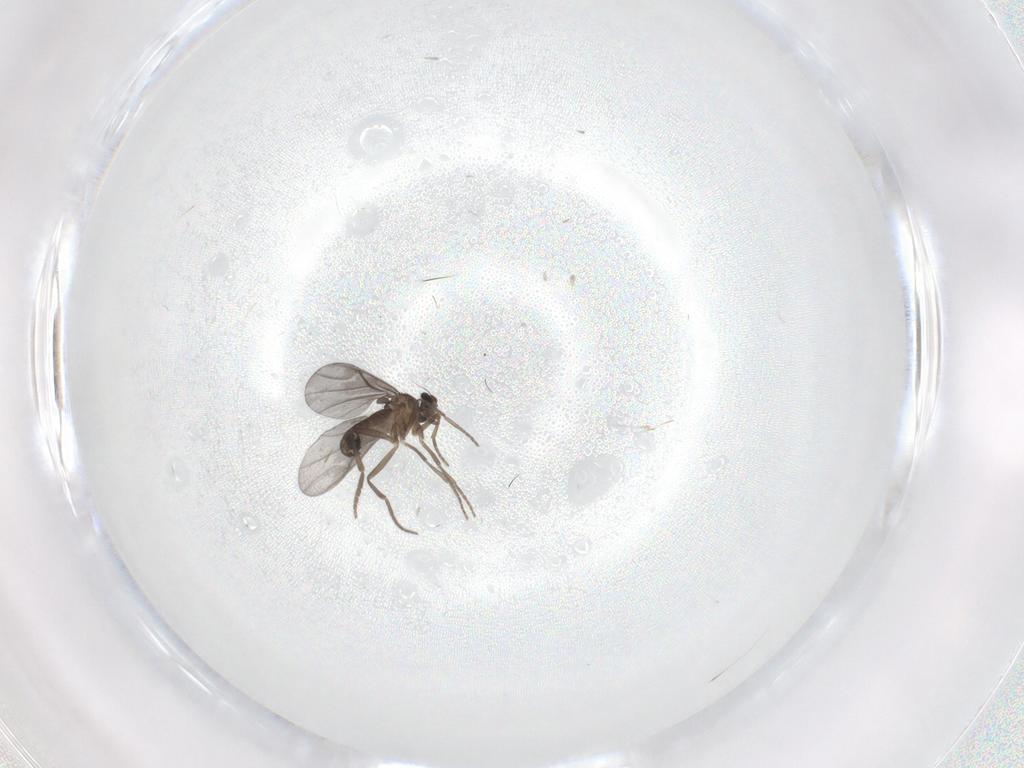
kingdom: Animalia
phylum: Arthropoda
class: Insecta
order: Diptera
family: Phoridae
